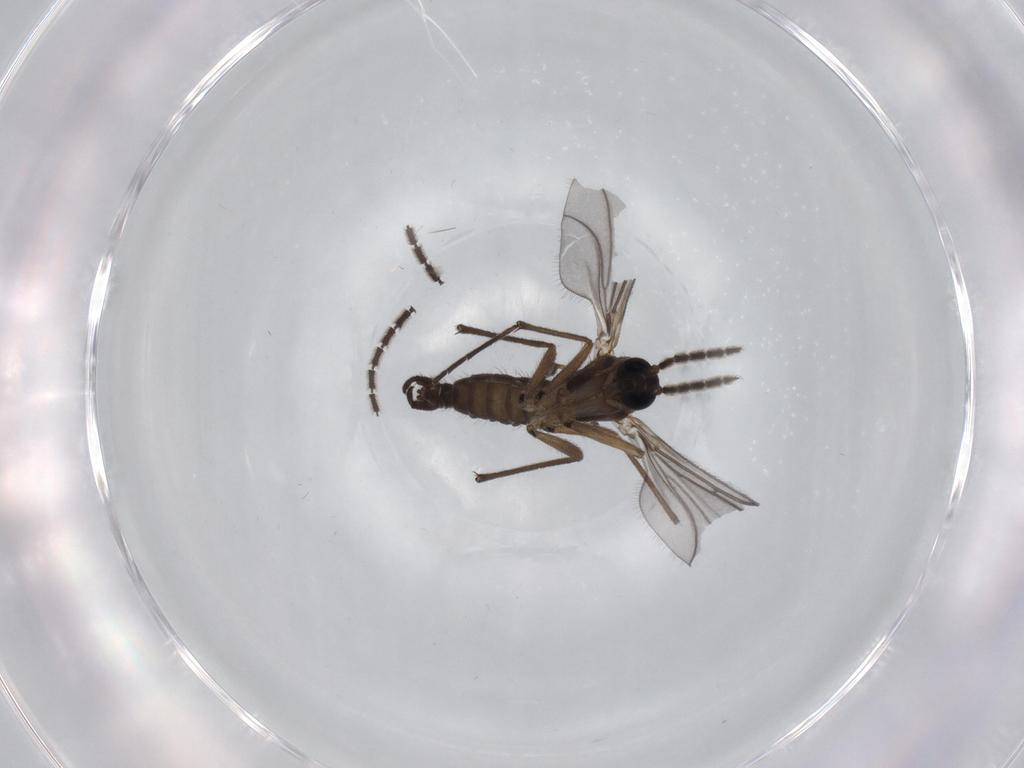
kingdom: Animalia
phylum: Arthropoda
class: Insecta
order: Diptera
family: Sciaridae
